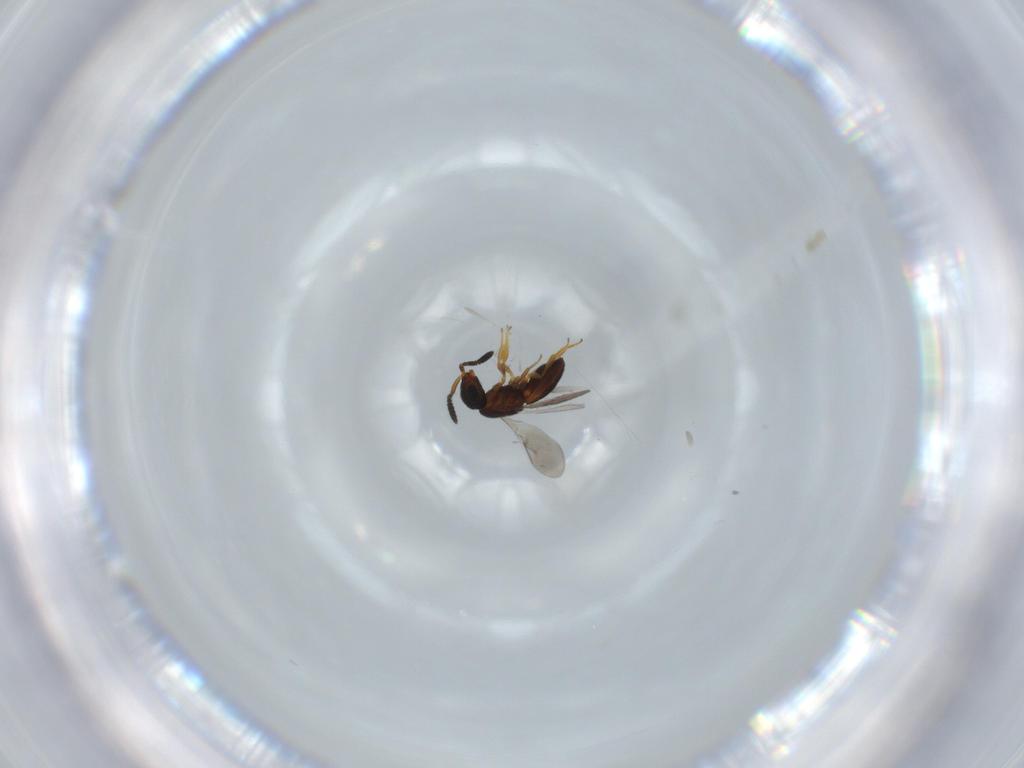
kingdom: Animalia
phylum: Arthropoda
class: Insecta
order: Hymenoptera
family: Scelionidae
